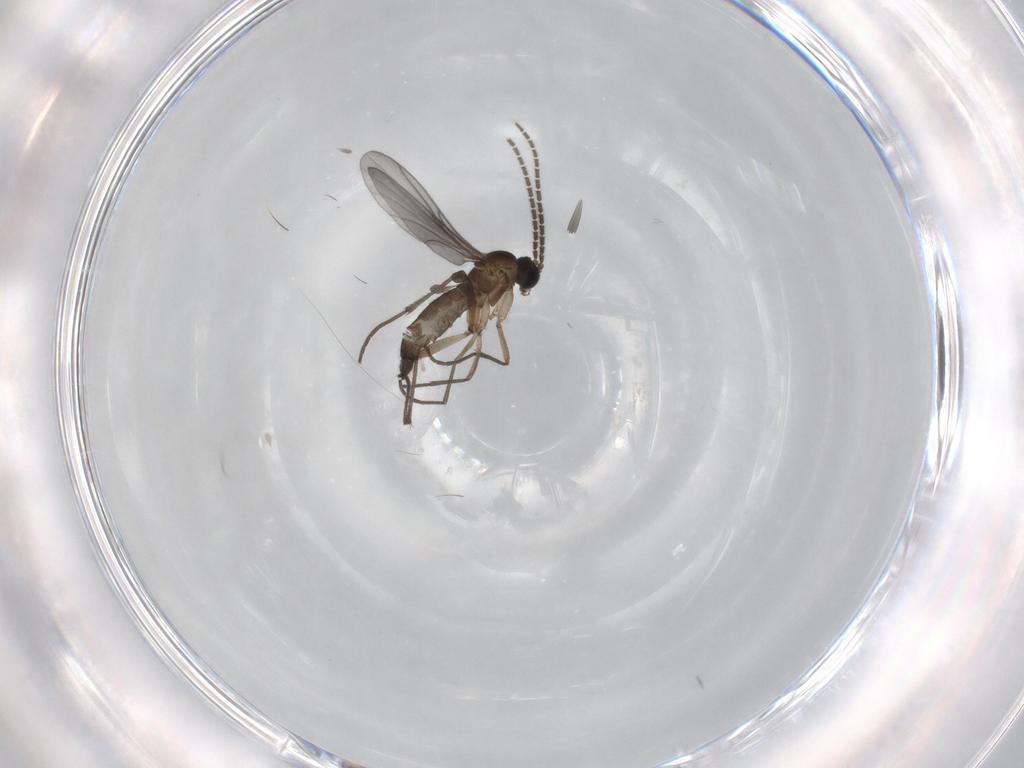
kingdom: Animalia
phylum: Arthropoda
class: Insecta
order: Diptera
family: Sciaridae
